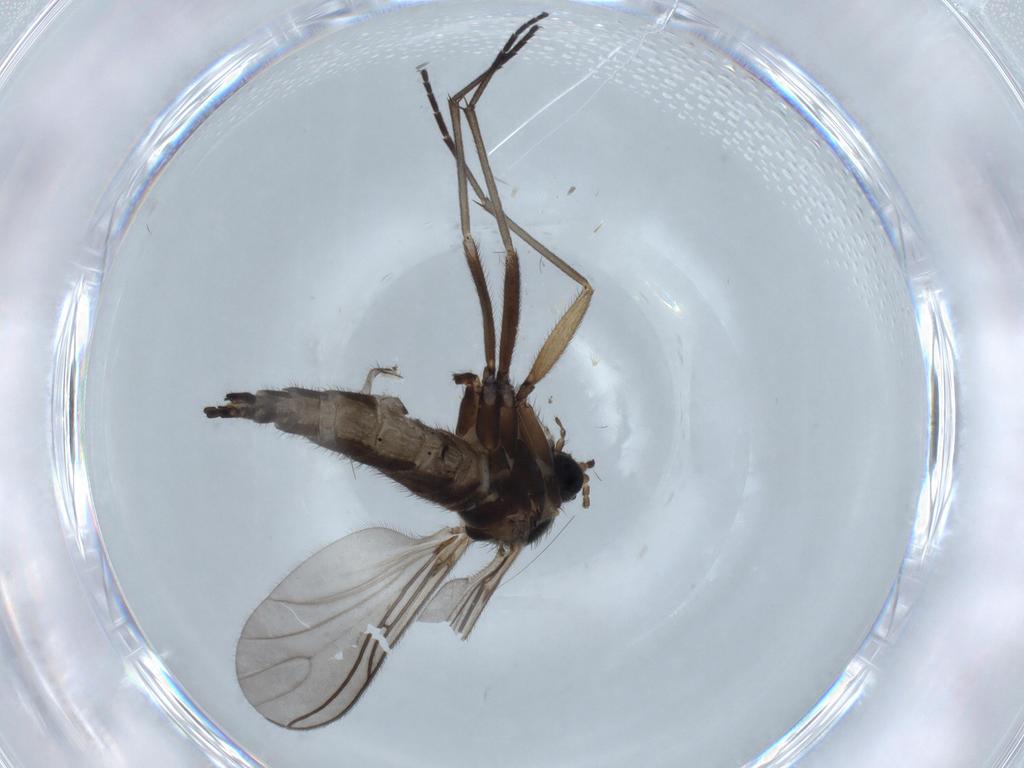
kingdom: Animalia
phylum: Arthropoda
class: Insecta
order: Diptera
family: Sciaridae
